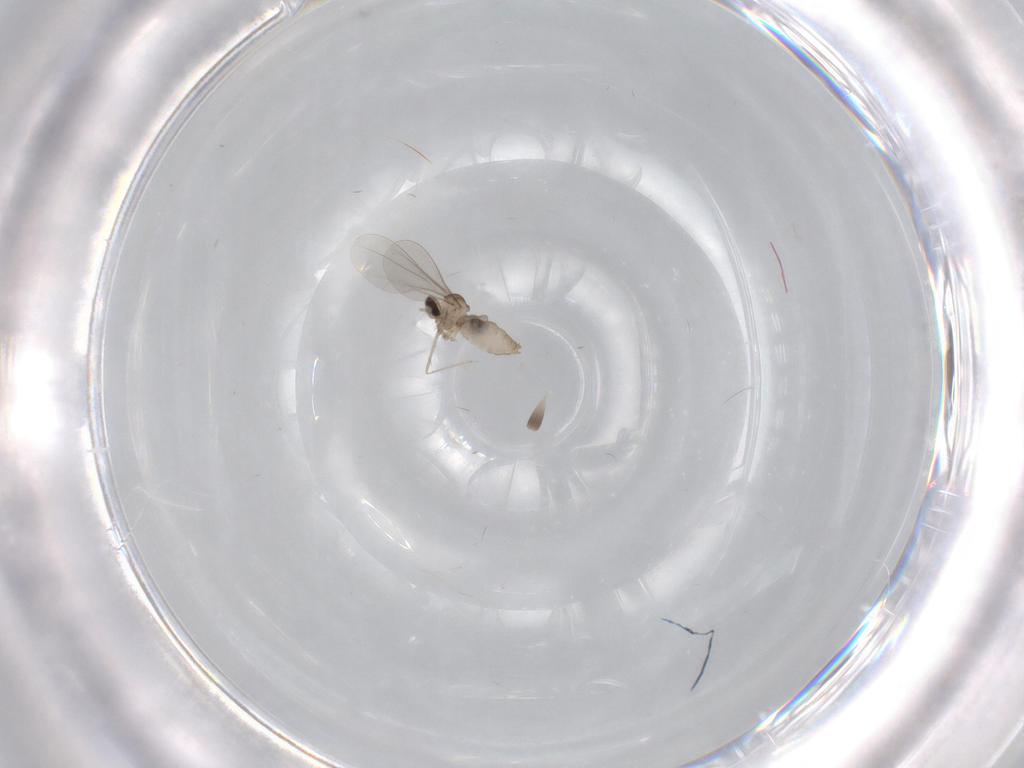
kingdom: Animalia
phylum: Arthropoda
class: Insecta
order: Diptera
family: Cecidomyiidae
